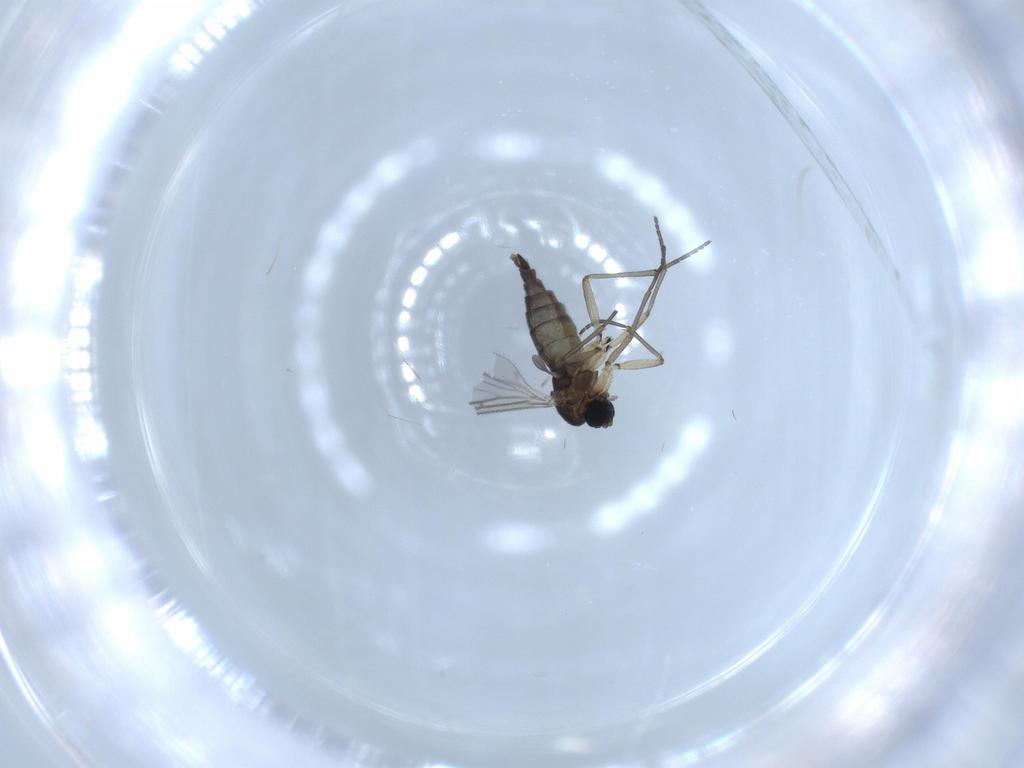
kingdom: Animalia
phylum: Arthropoda
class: Insecta
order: Diptera
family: Sciaridae
